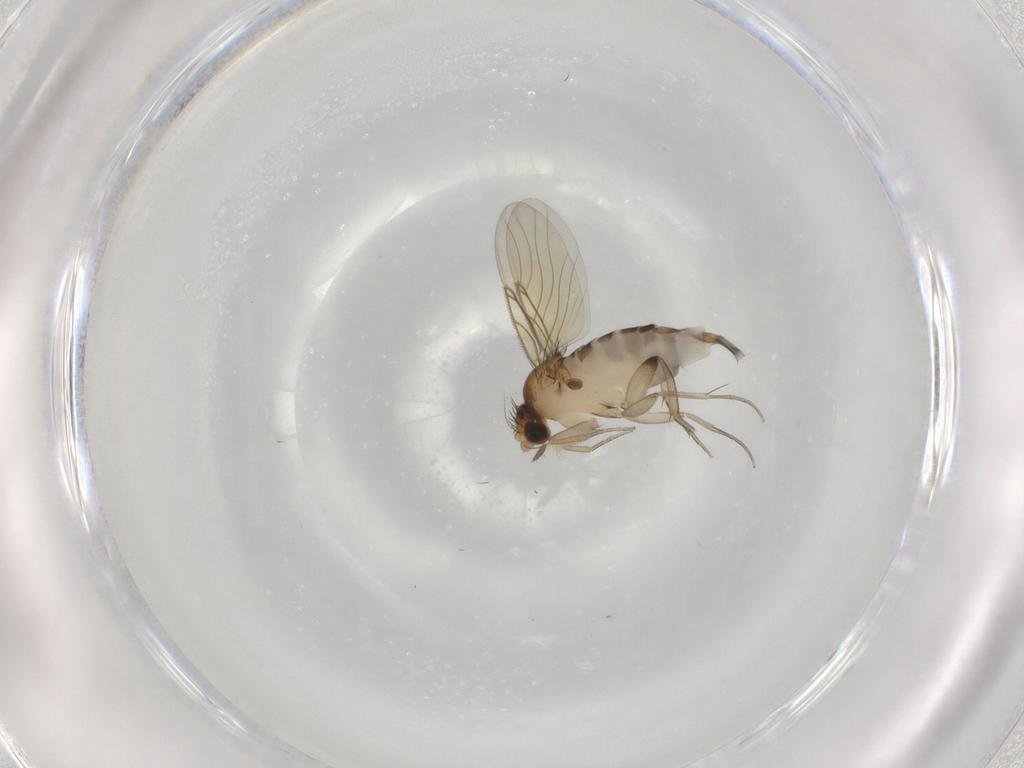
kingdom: Animalia
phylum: Arthropoda
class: Insecta
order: Diptera
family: Phoridae
